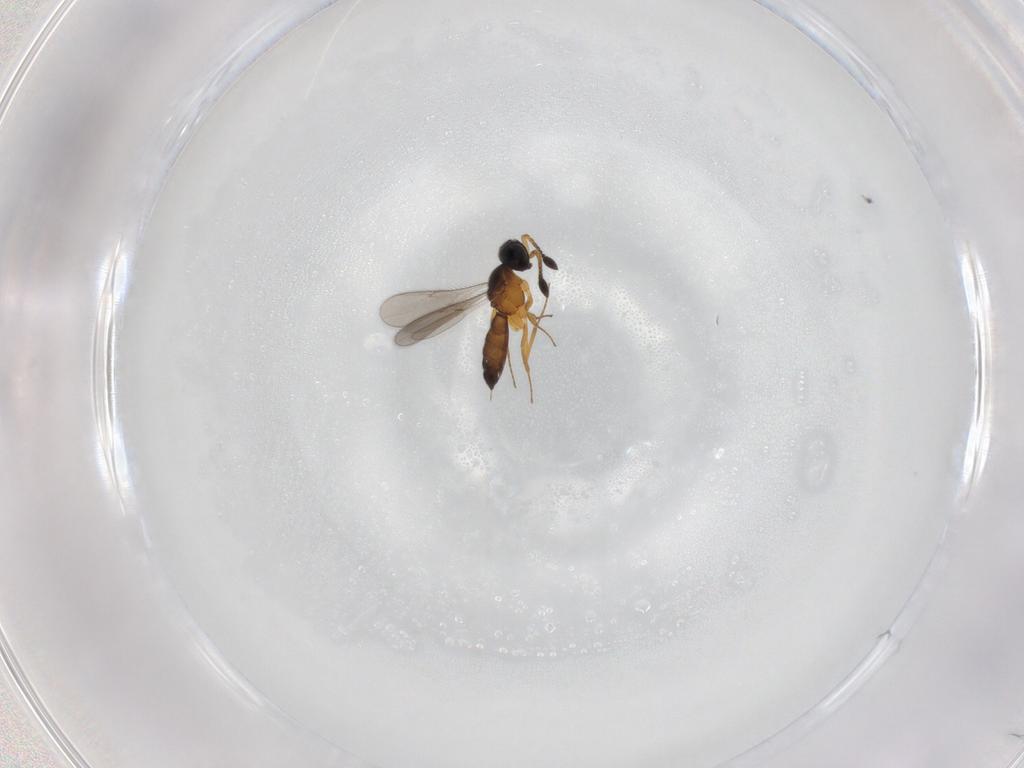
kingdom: Animalia
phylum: Arthropoda
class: Insecta
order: Hymenoptera
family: Scelionidae
